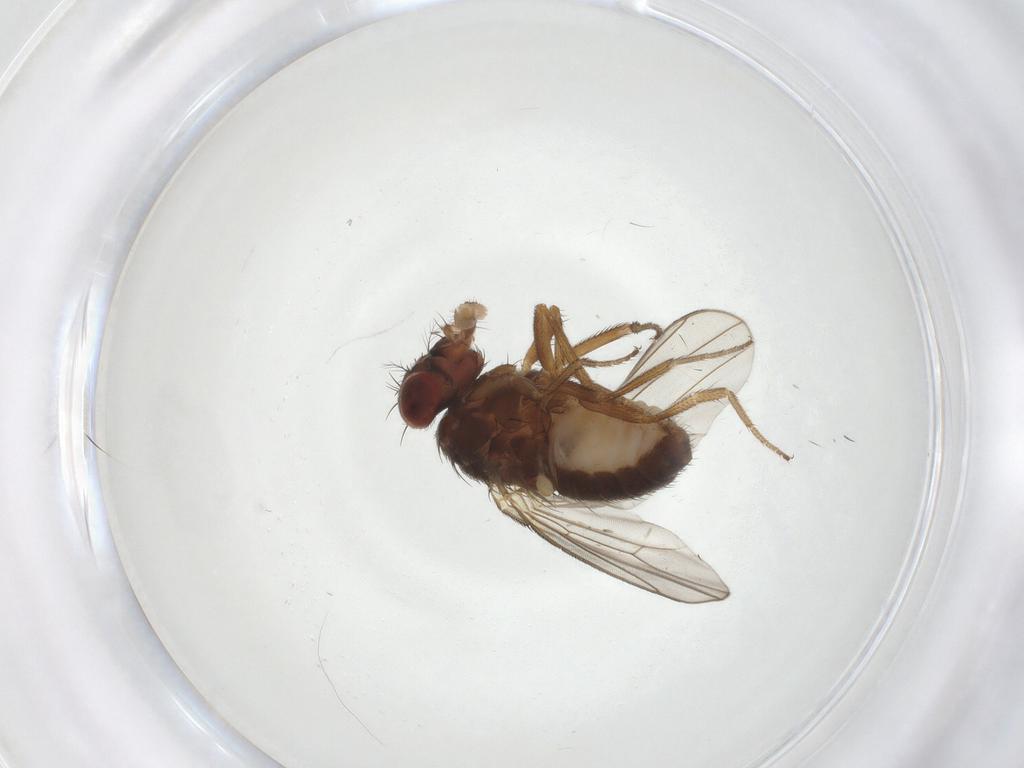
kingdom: Animalia
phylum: Arthropoda
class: Insecta
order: Diptera
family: Drosophilidae
